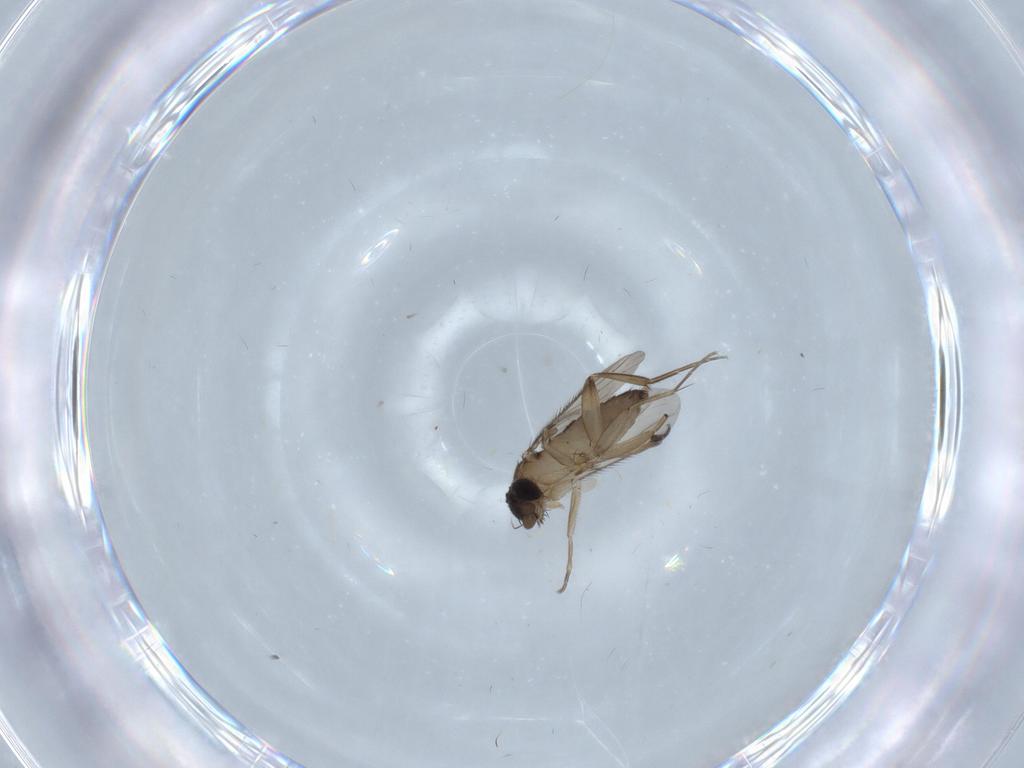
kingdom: Animalia
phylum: Arthropoda
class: Insecta
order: Diptera
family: Phoridae
